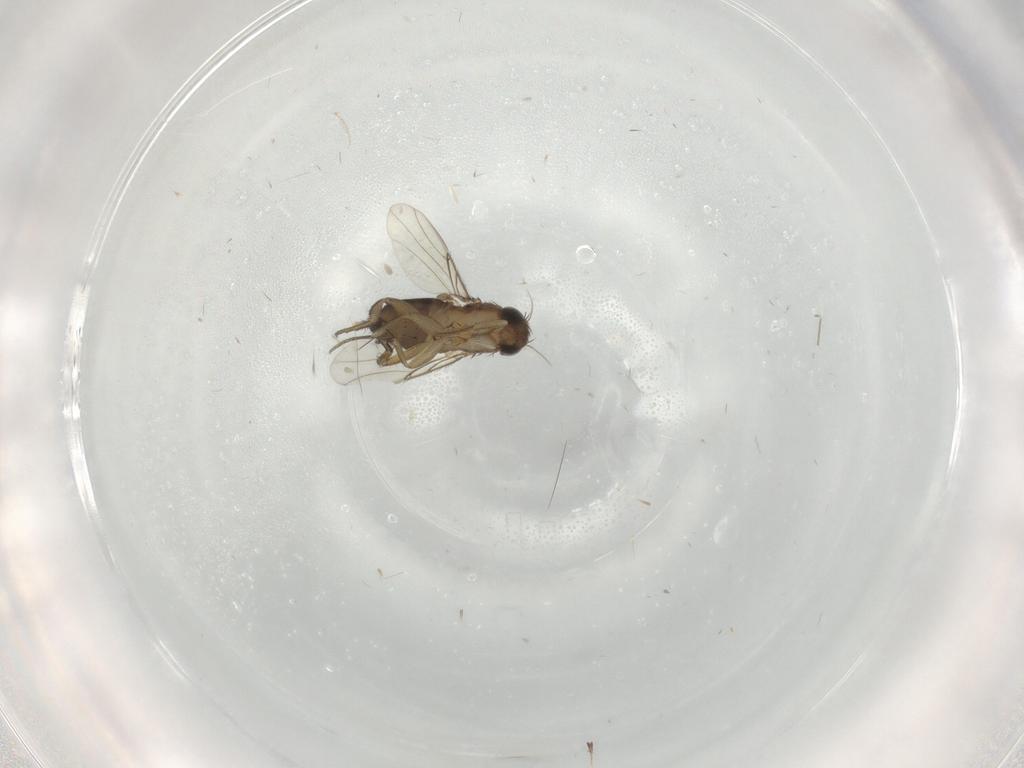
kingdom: Animalia
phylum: Arthropoda
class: Insecta
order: Diptera
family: Phoridae
